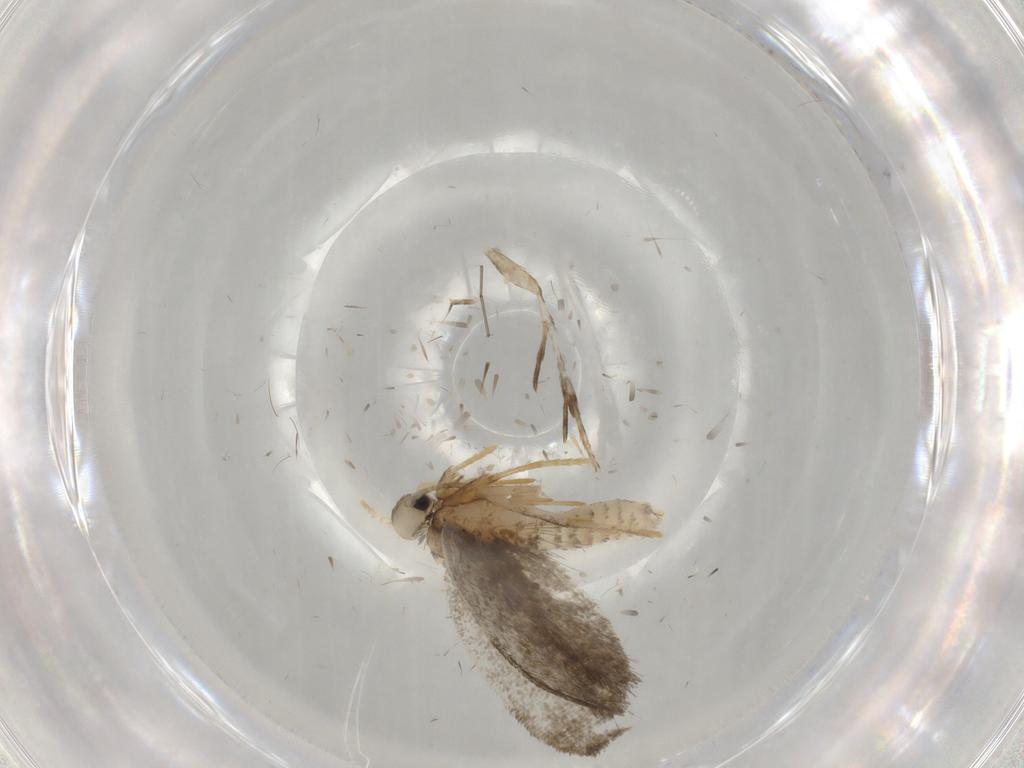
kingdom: Animalia
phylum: Arthropoda
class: Insecta
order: Lepidoptera
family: Psychidae
